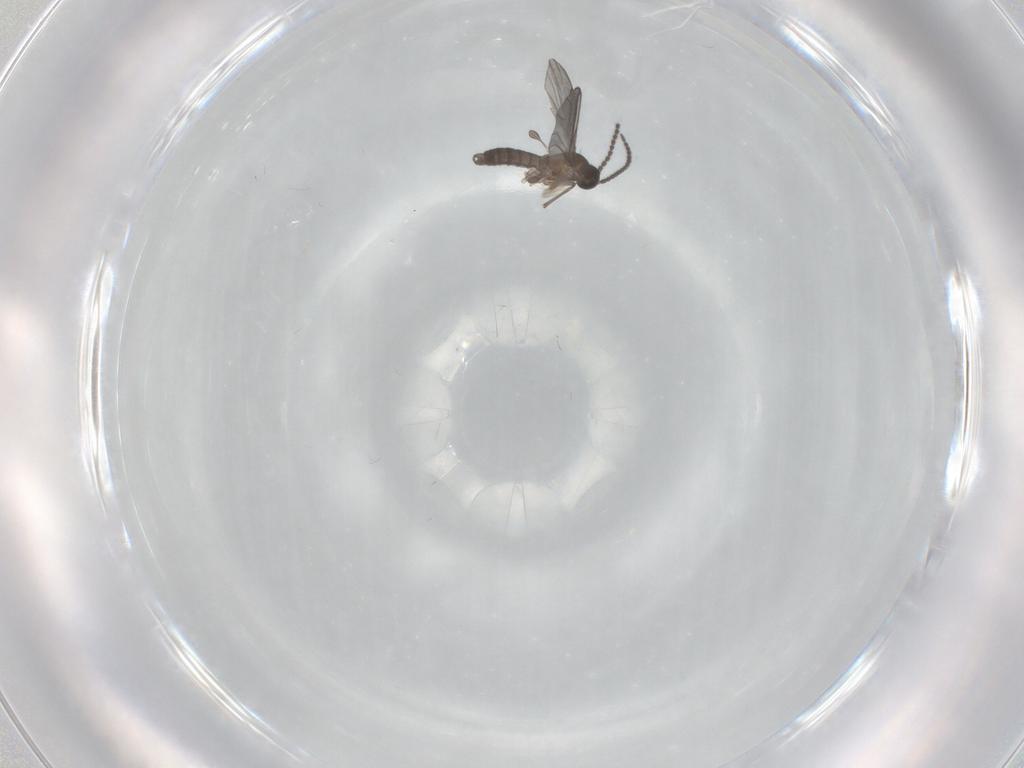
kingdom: Animalia
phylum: Arthropoda
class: Insecta
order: Diptera
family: Sciaridae
